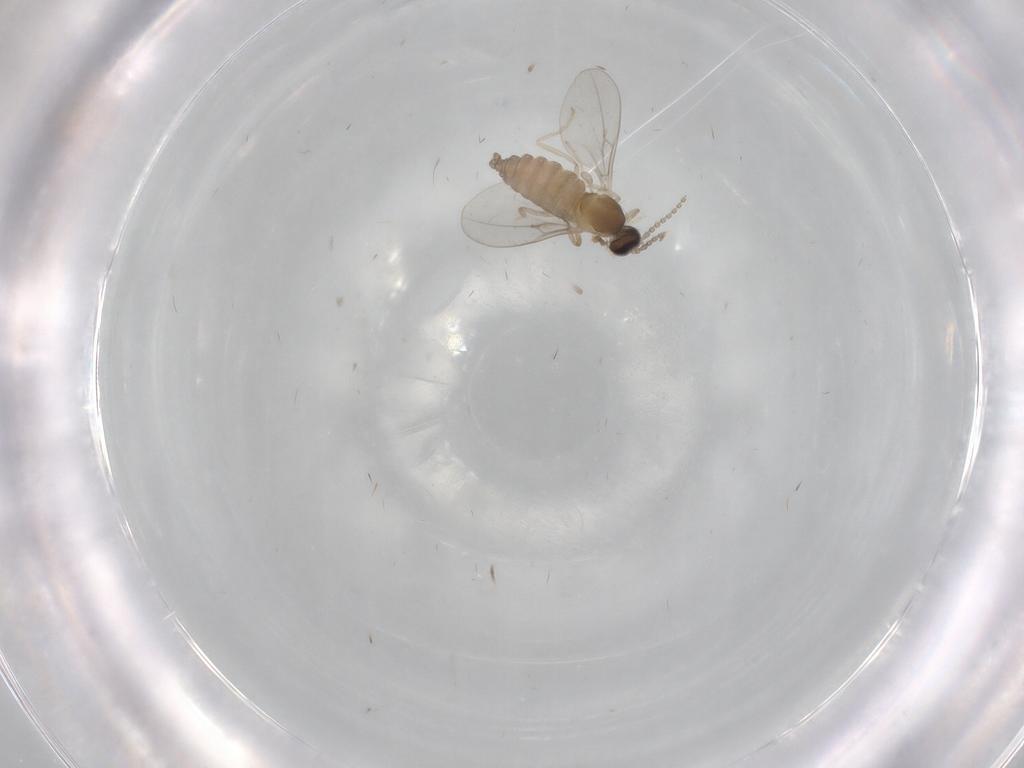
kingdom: Animalia
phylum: Arthropoda
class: Insecta
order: Diptera
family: Cecidomyiidae
